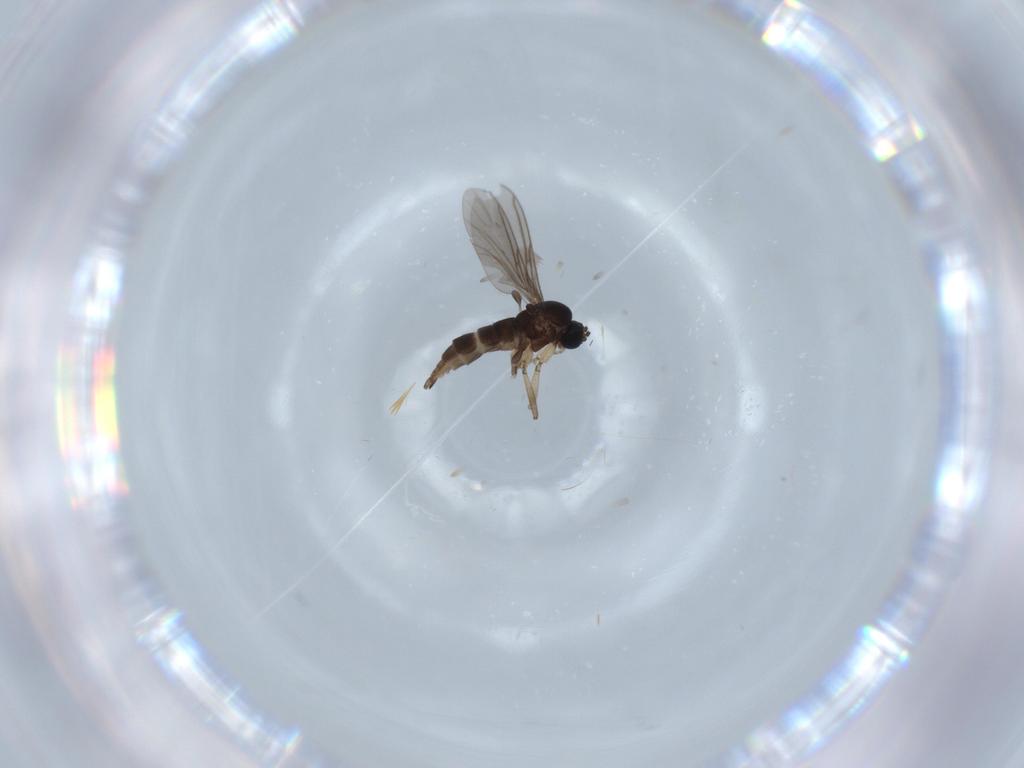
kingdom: Animalia
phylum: Arthropoda
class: Insecta
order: Diptera
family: Sciaridae
